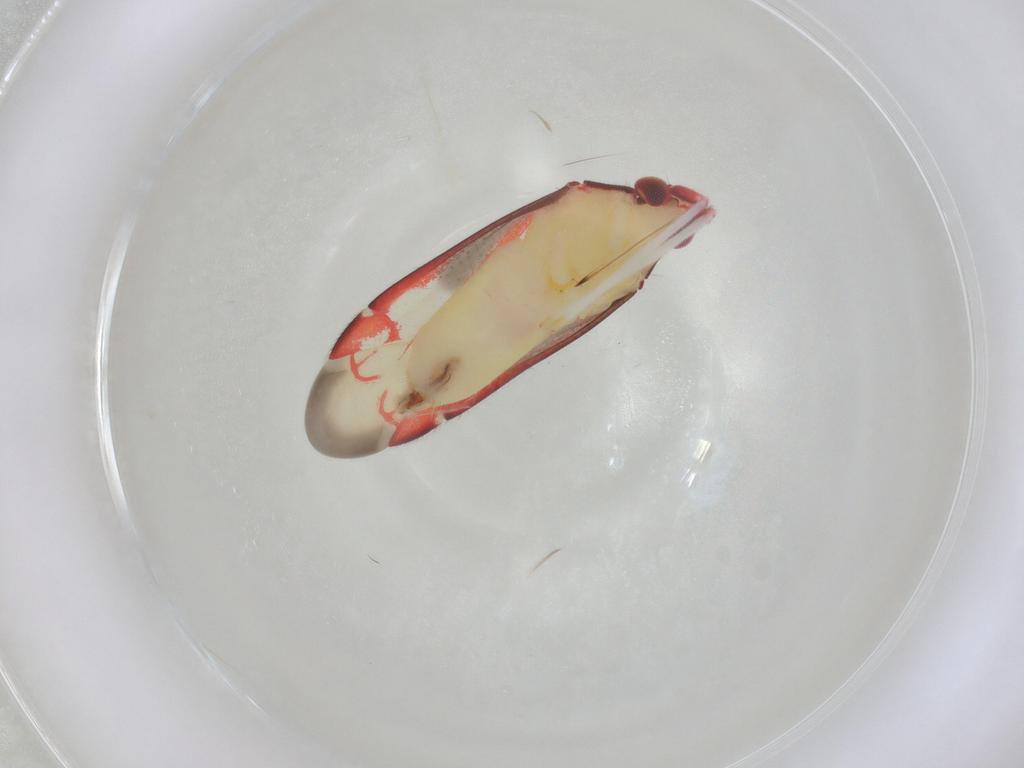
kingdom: Animalia
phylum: Arthropoda
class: Insecta
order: Hemiptera
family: Miridae
